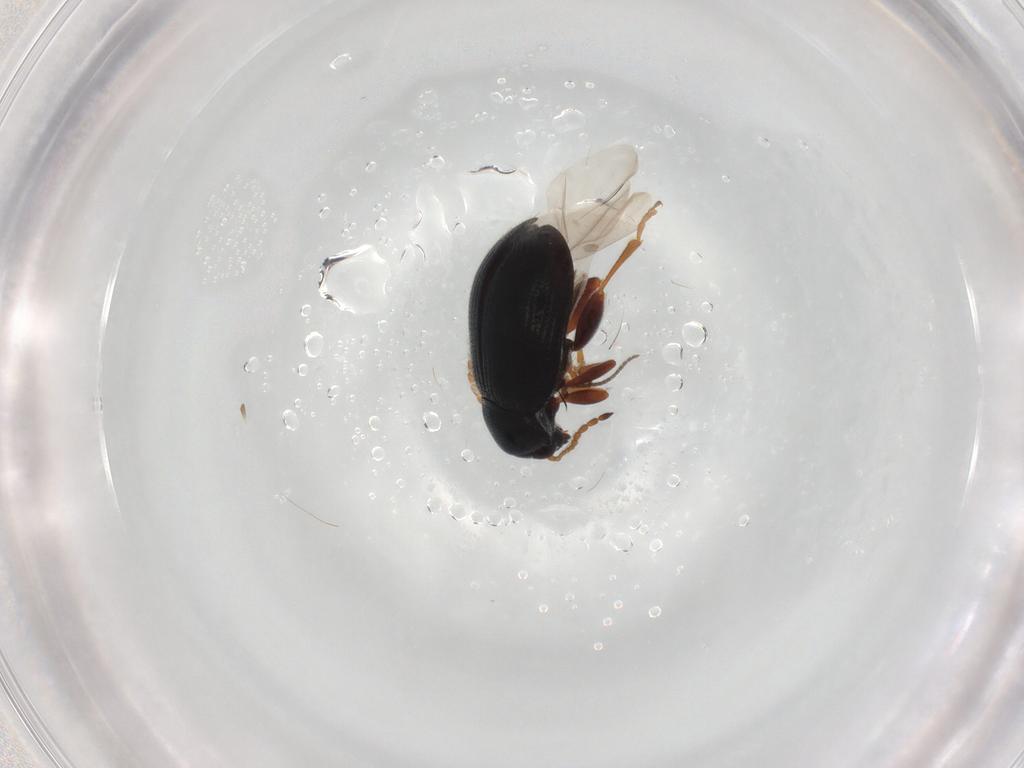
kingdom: Animalia
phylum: Arthropoda
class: Insecta
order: Coleoptera
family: Chrysomelidae
